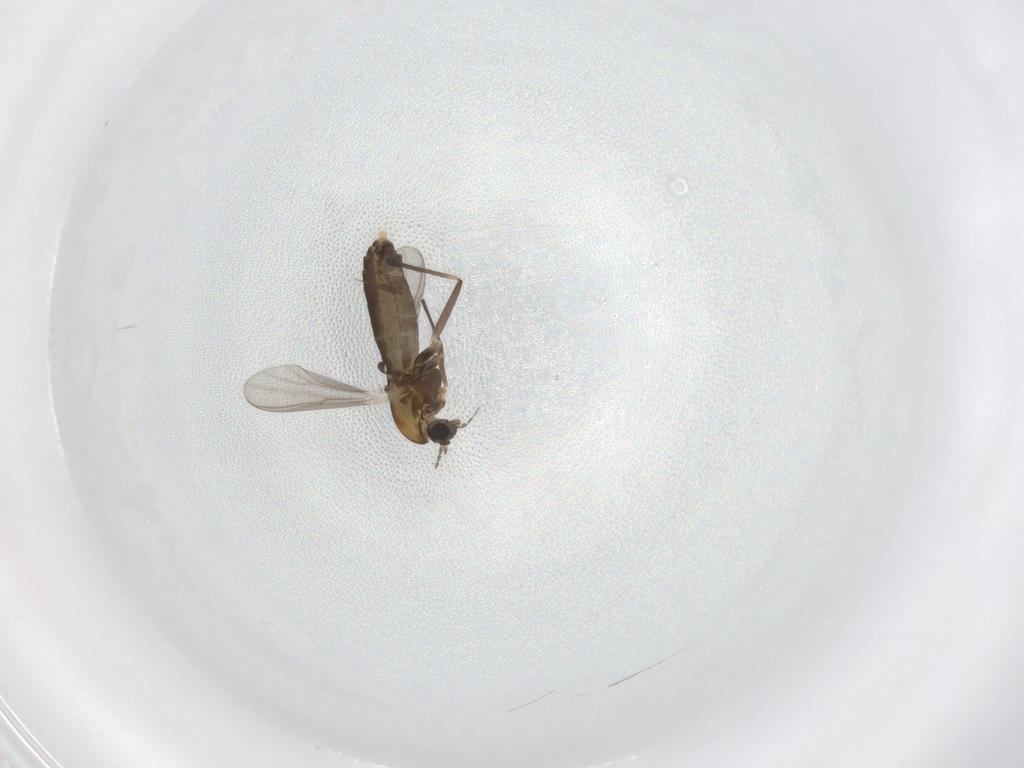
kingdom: Animalia
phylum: Arthropoda
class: Insecta
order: Diptera
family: Chironomidae
